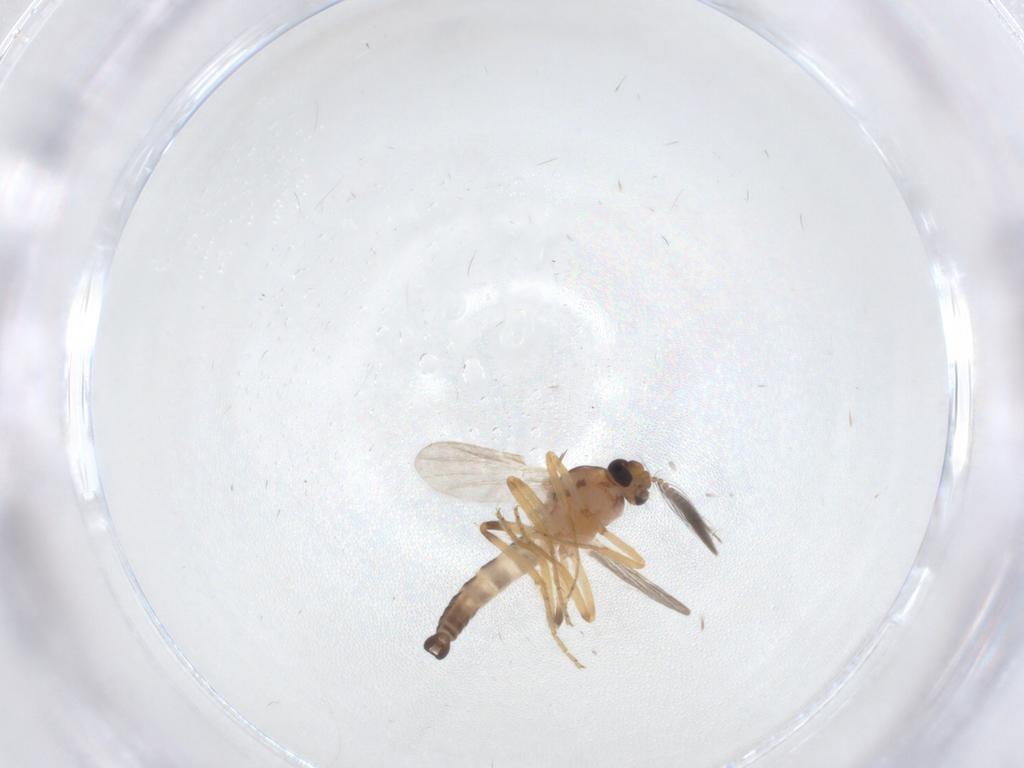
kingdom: Animalia
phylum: Arthropoda
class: Insecta
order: Diptera
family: Ceratopogonidae
